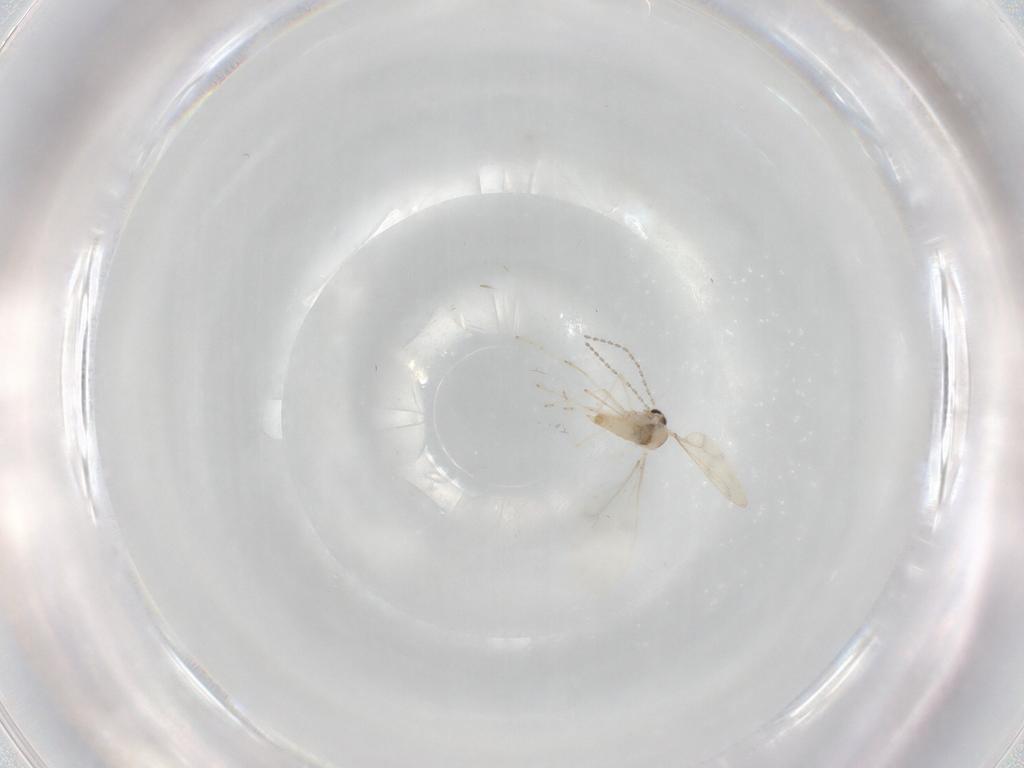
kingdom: Animalia
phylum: Arthropoda
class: Insecta
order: Diptera
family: Cecidomyiidae
